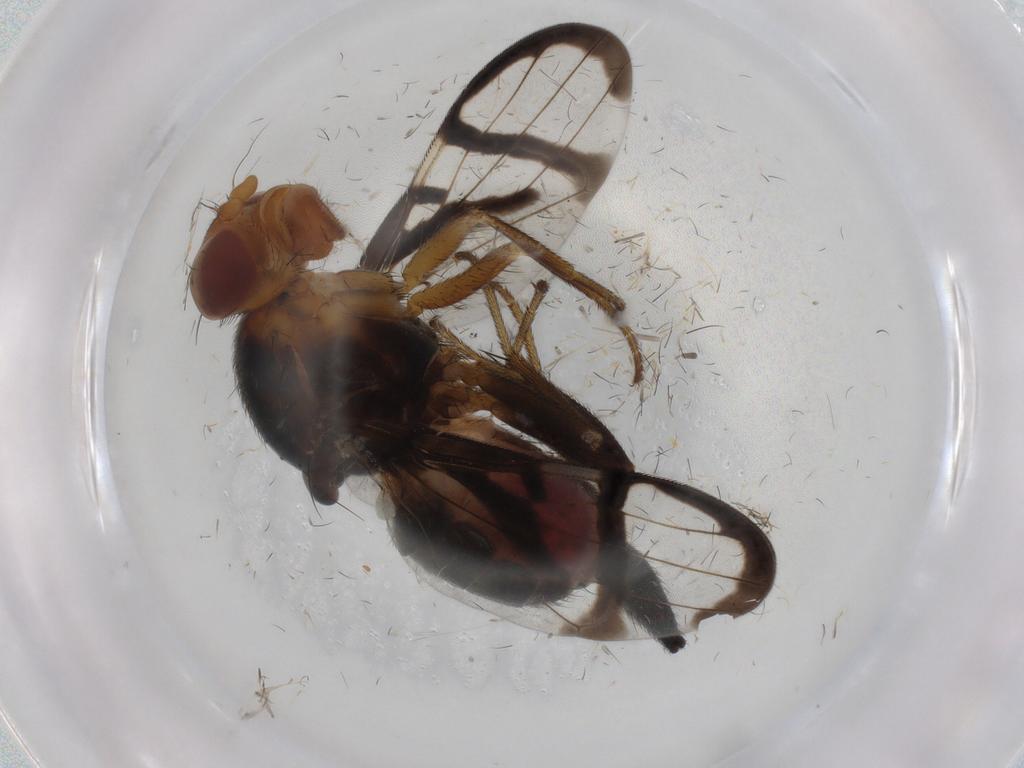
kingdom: Animalia
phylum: Arthropoda
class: Insecta
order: Diptera
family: Ulidiidae
